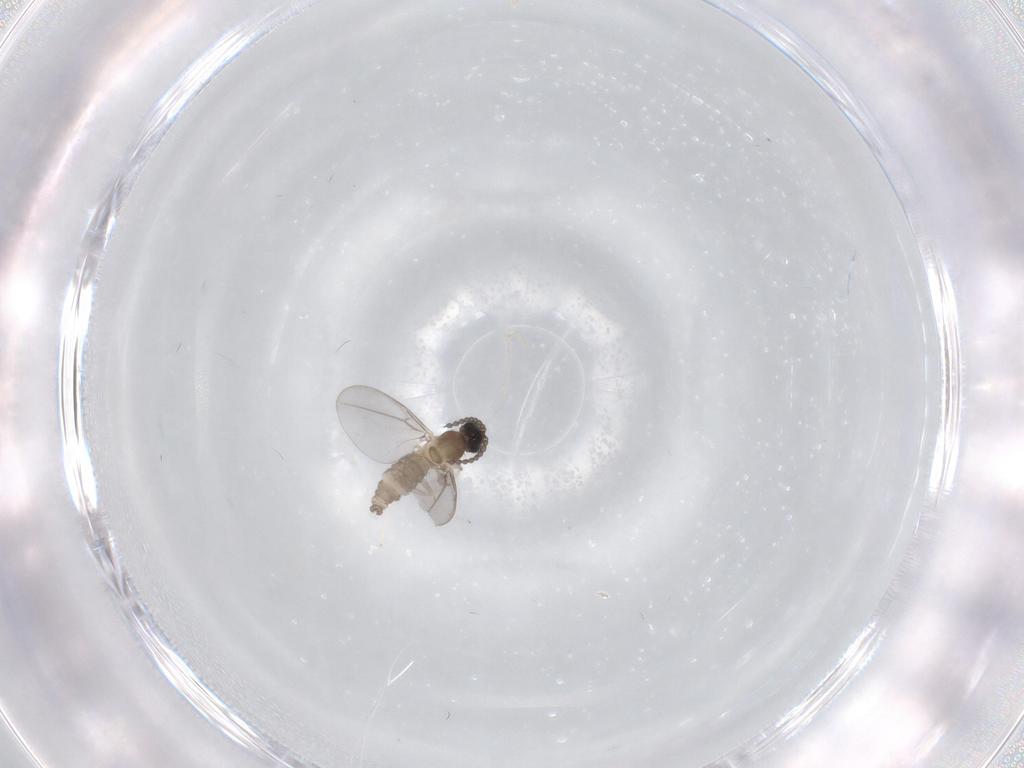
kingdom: Animalia
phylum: Arthropoda
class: Insecta
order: Diptera
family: Cecidomyiidae
